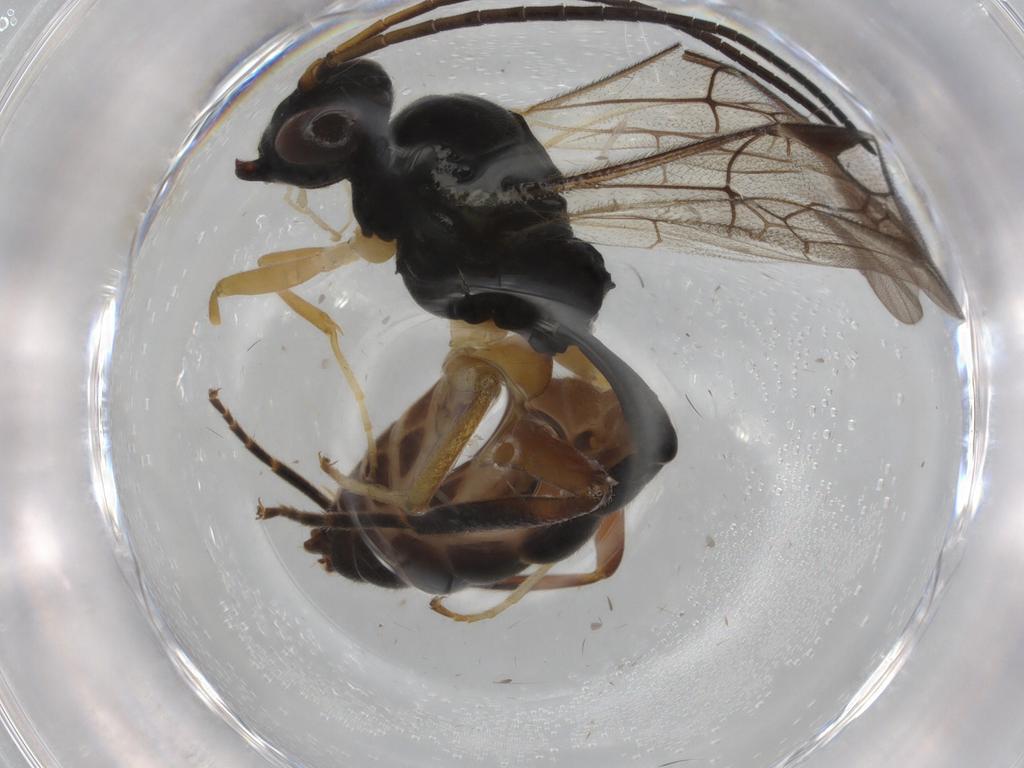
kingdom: Animalia
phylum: Arthropoda
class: Insecta
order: Hymenoptera
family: Ichneumonidae
